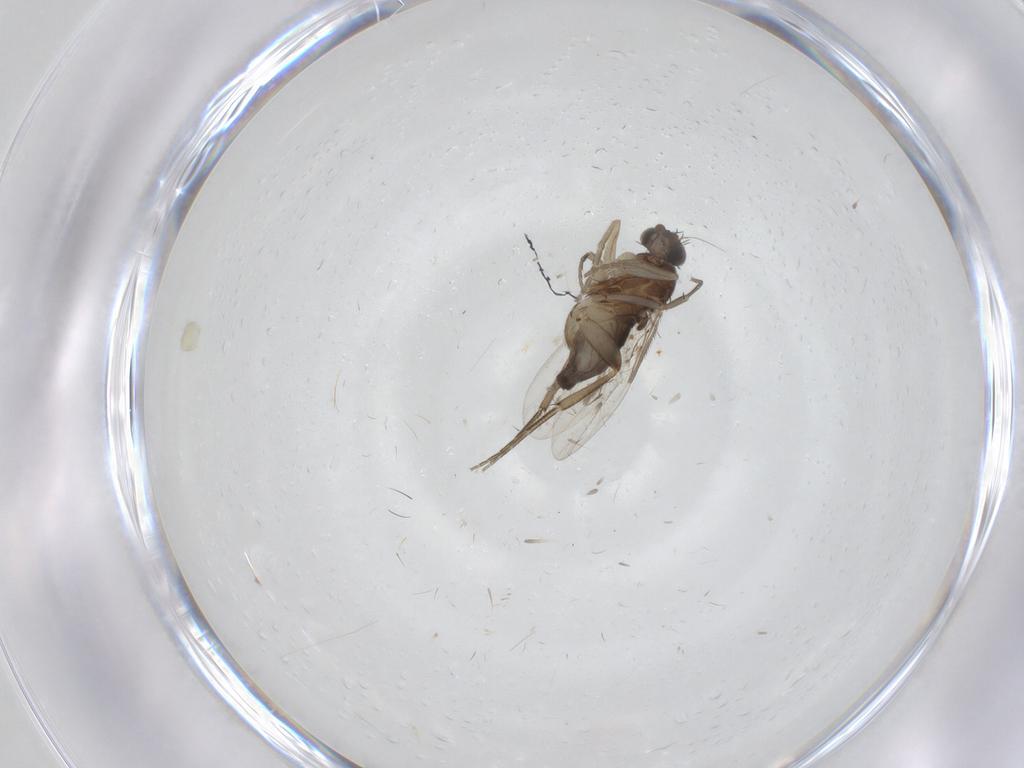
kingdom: Animalia
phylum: Arthropoda
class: Insecta
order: Diptera
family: Phoridae
